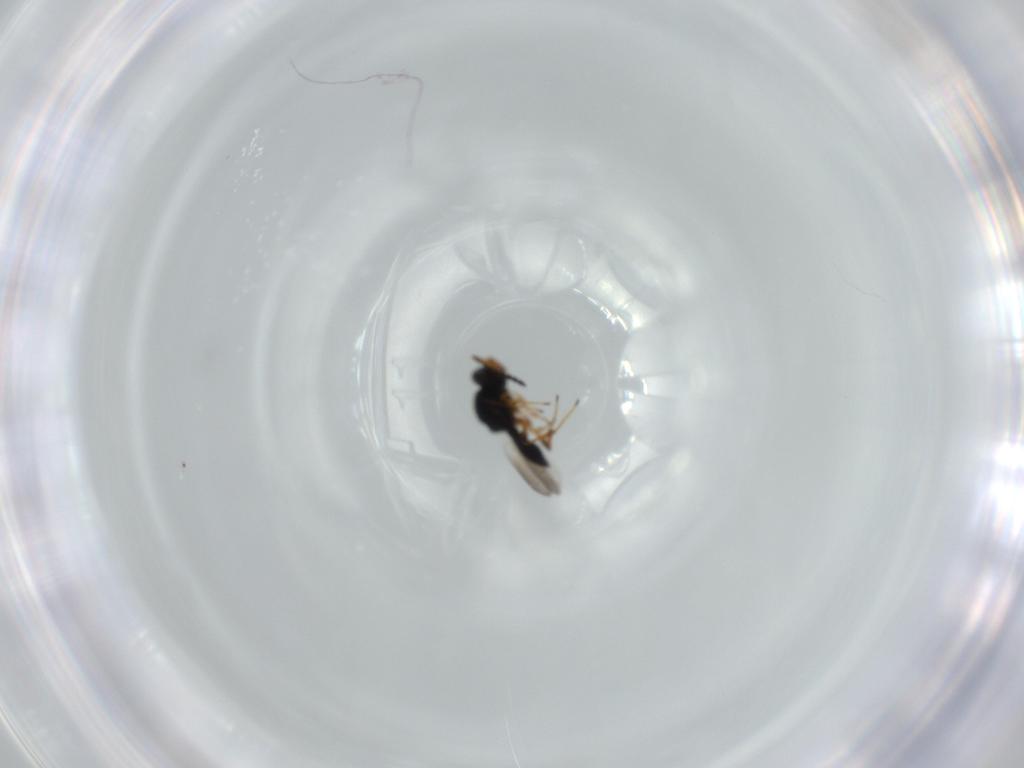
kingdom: Animalia
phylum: Arthropoda
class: Insecta
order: Hymenoptera
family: Platygastridae
